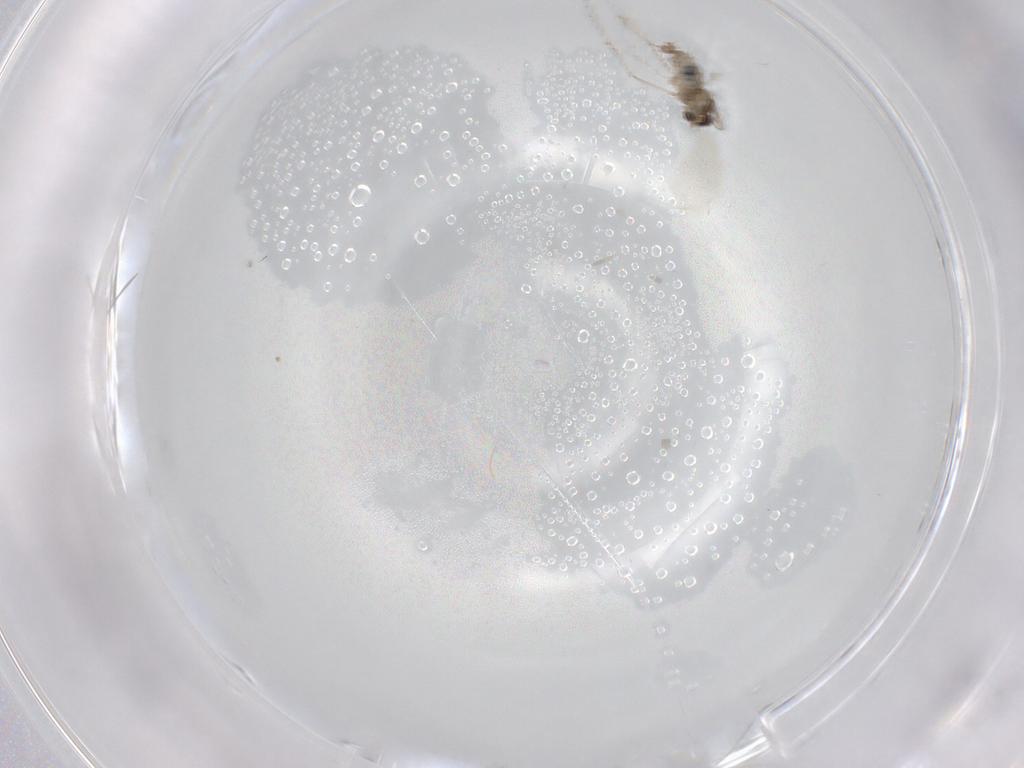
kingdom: Animalia
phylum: Arthropoda
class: Insecta
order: Diptera
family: Cecidomyiidae
